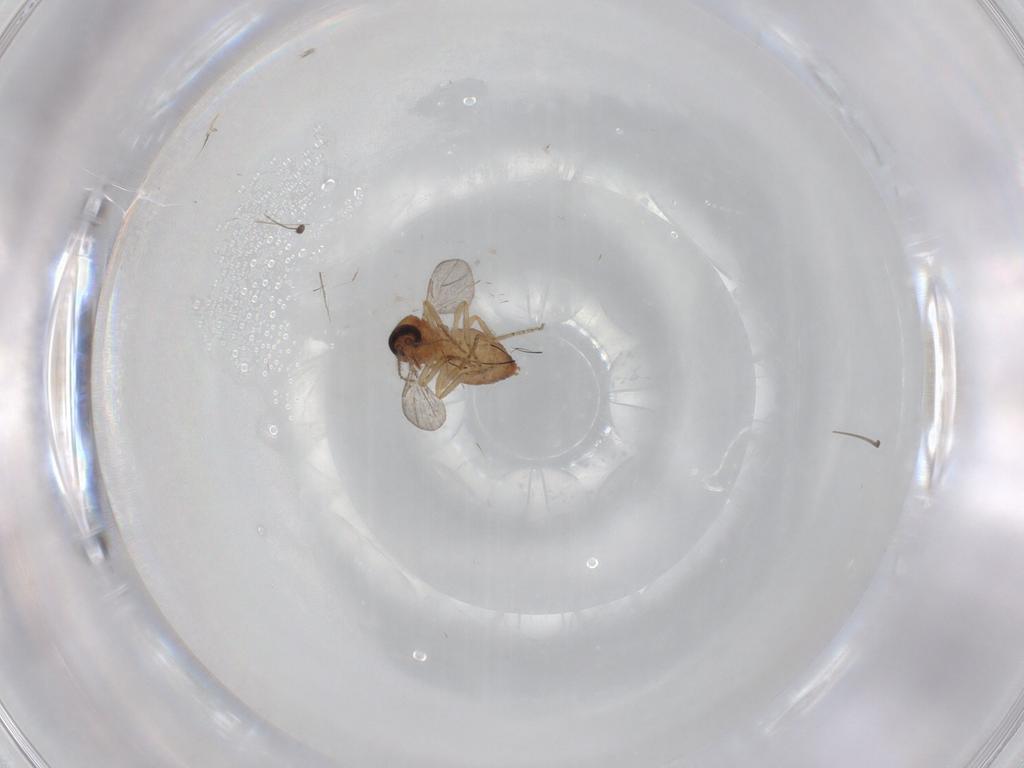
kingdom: Animalia
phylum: Arthropoda
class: Insecta
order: Diptera
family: Ceratopogonidae
